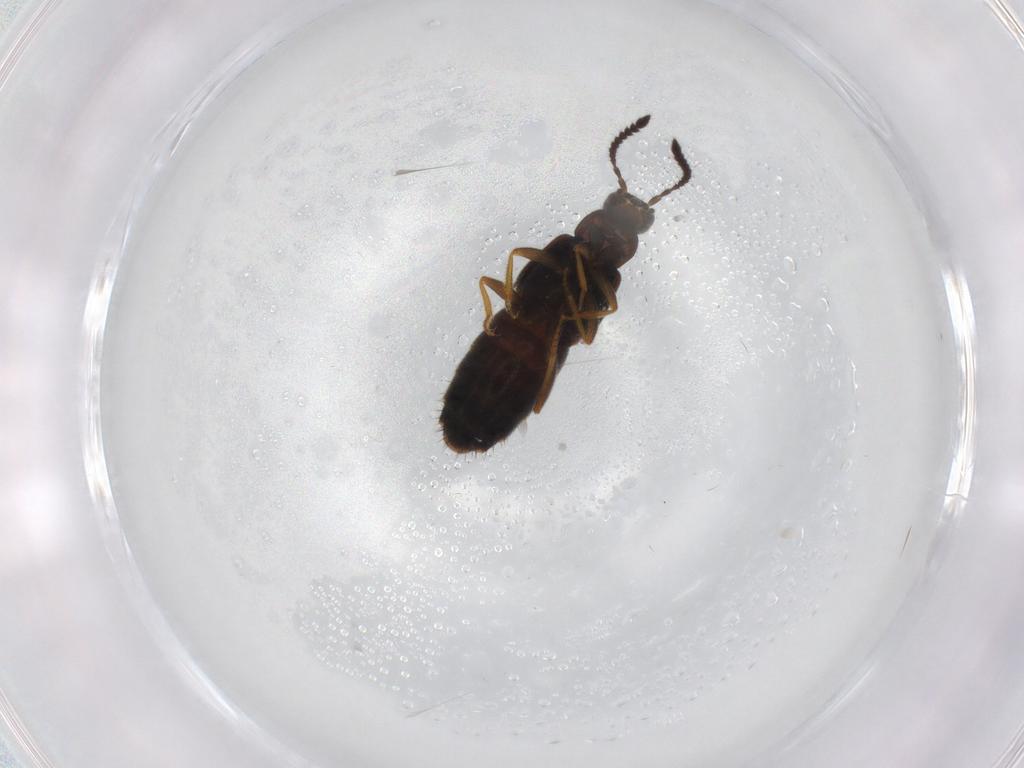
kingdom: Animalia
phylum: Arthropoda
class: Insecta
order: Coleoptera
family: Staphylinidae
